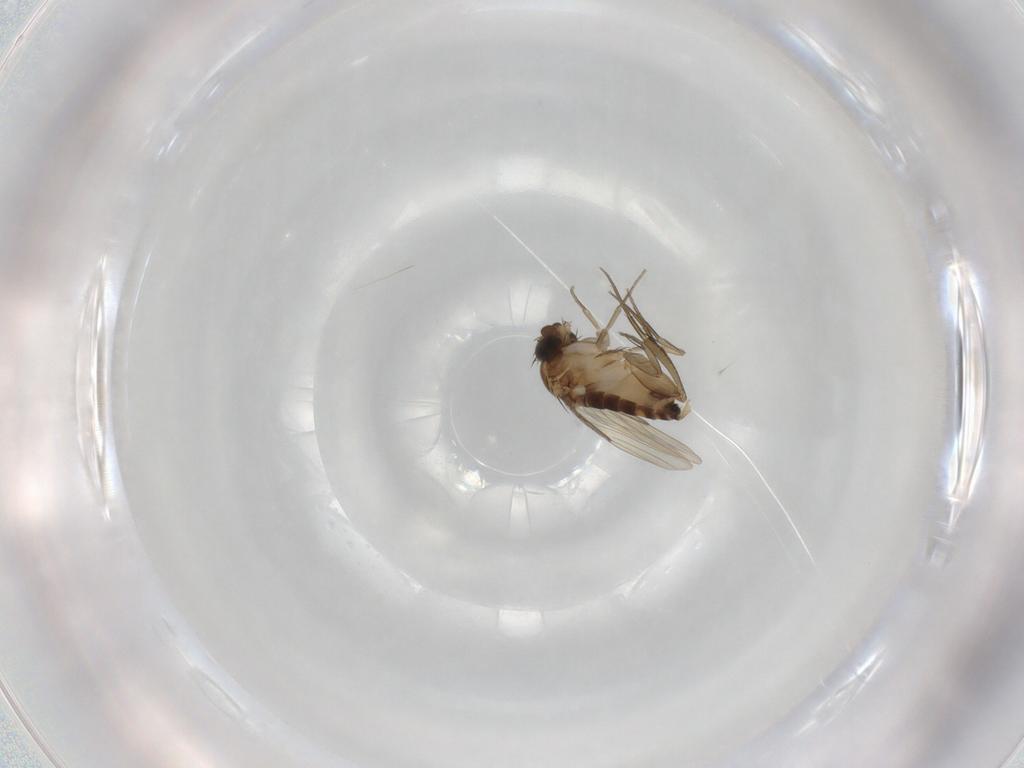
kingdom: Animalia
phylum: Arthropoda
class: Insecta
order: Diptera
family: Phoridae
